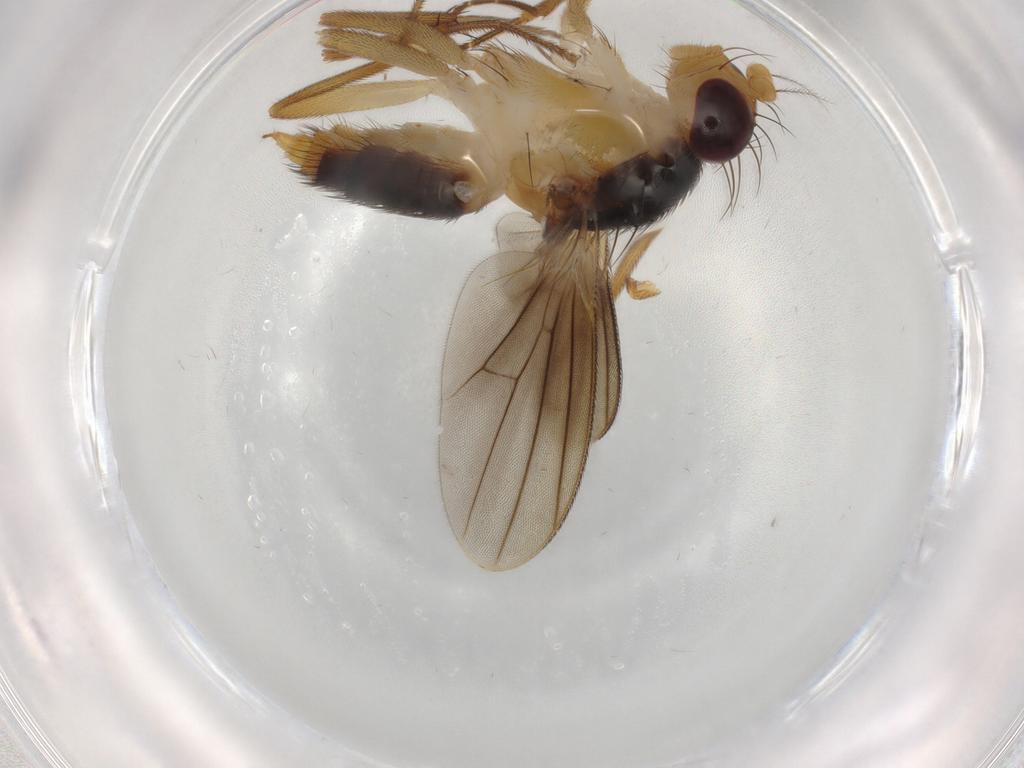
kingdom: Animalia
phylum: Arthropoda
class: Insecta
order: Diptera
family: Clusiidae
